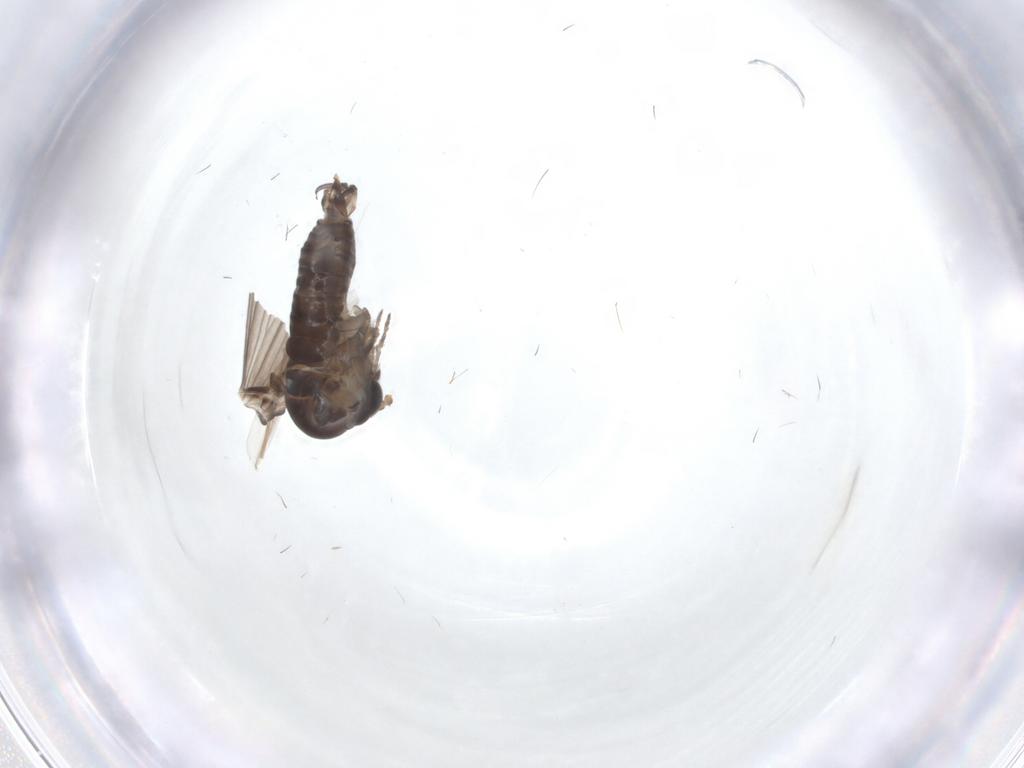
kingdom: Animalia
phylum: Arthropoda
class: Insecta
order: Diptera
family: Psychodidae
